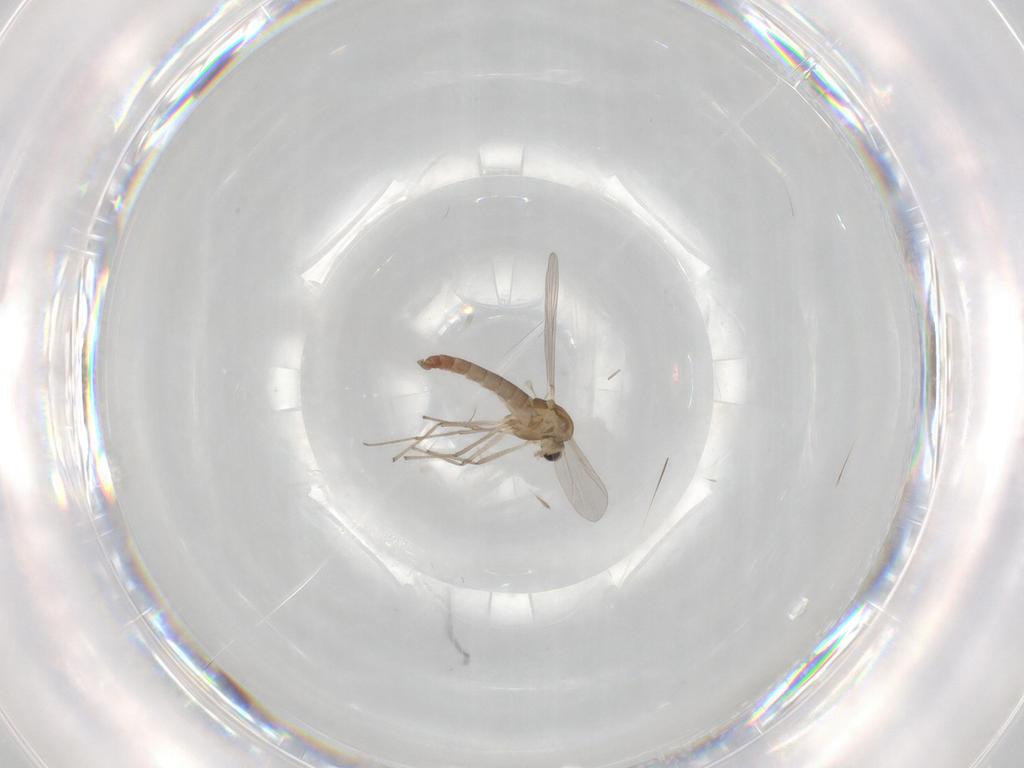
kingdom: Animalia
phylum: Arthropoda
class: Insecta
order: Diptera
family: Chironomidae
